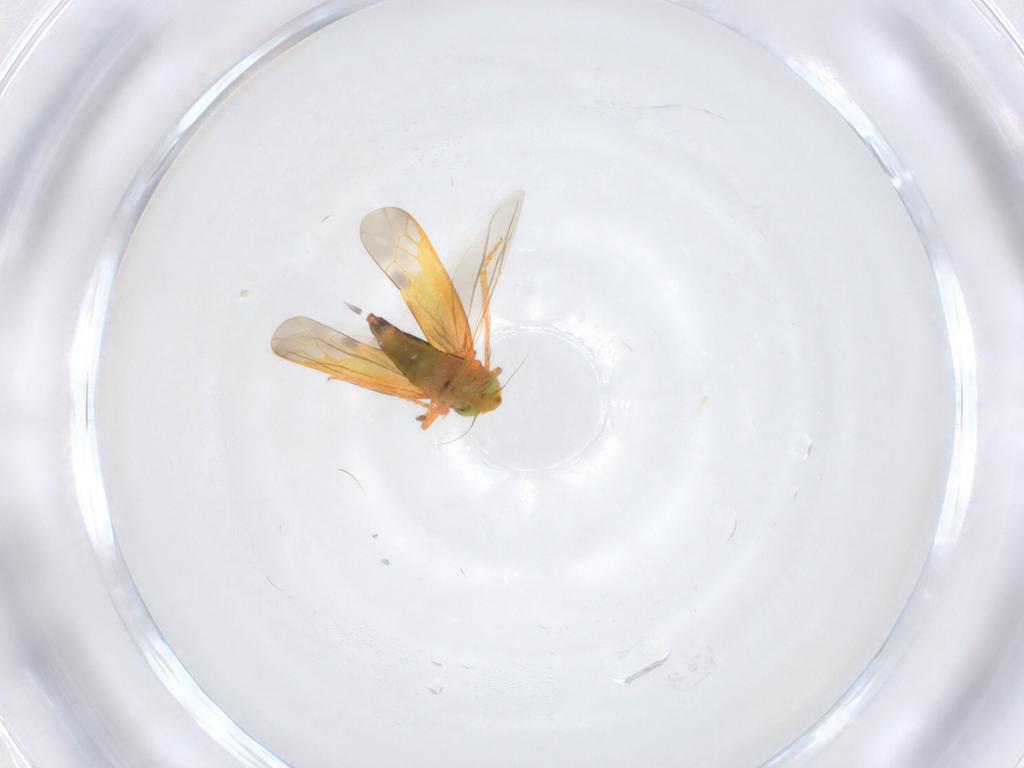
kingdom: Animalia
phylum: Arthropoda
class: Insecta
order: Hemiptera
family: Cicadellidae
